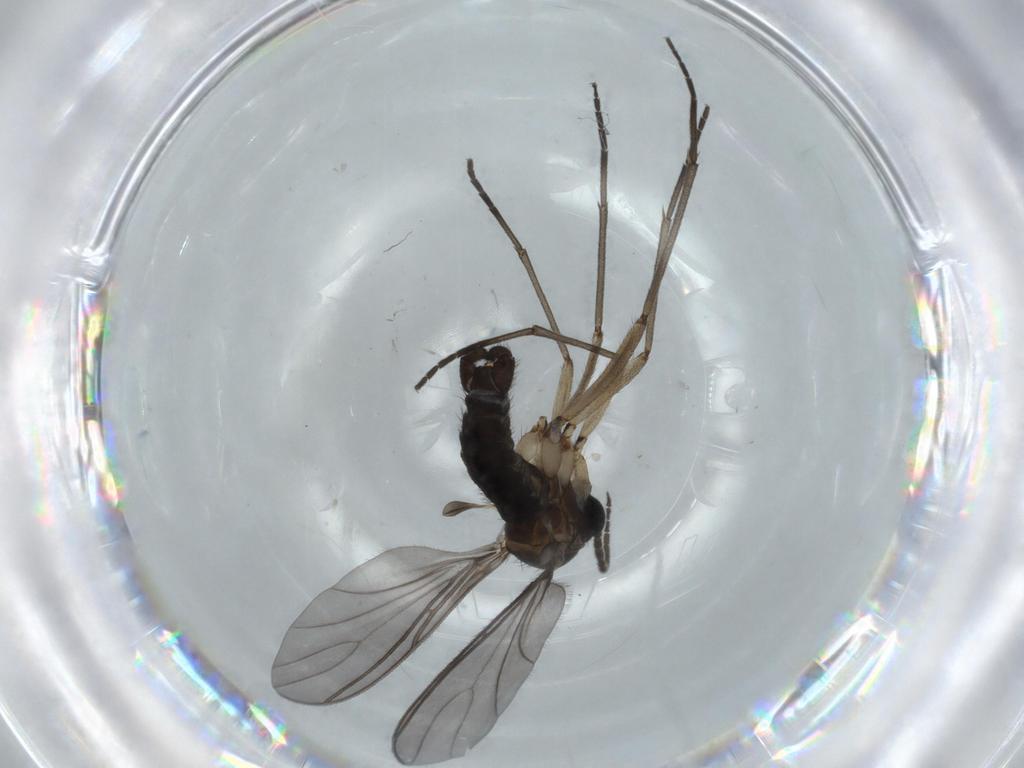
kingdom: Animalia
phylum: Arthropoda
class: Insecta
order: Diptera
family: Sciaridae
